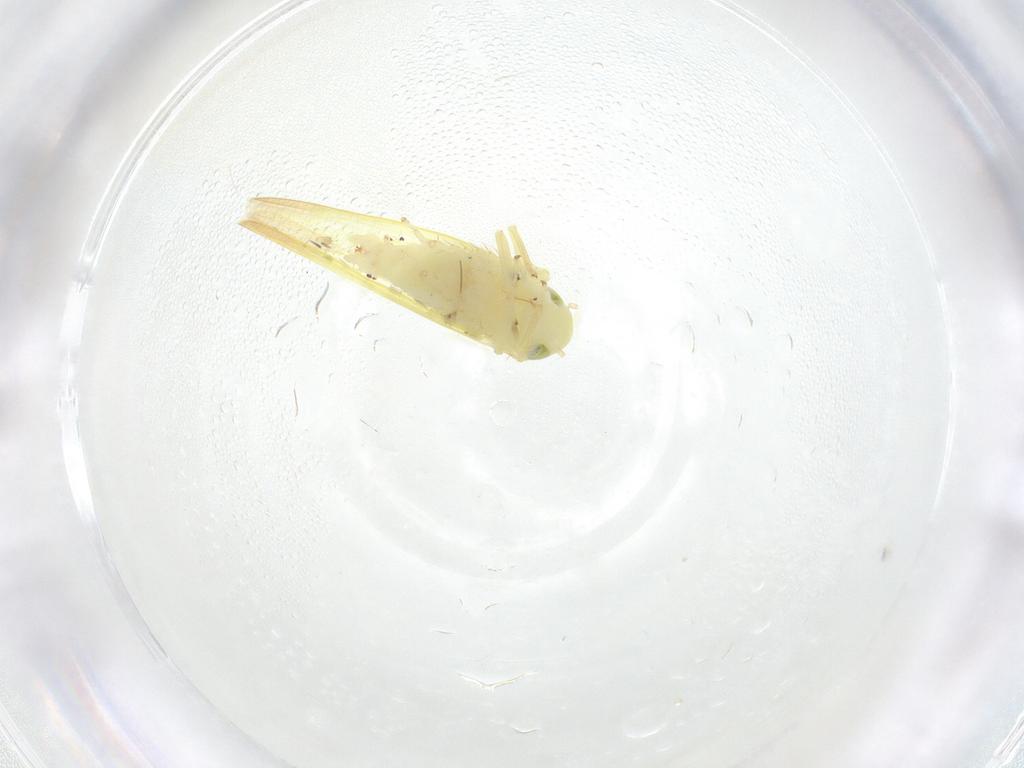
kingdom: Animalia
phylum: Arthropoda
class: Insecta
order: Hemiptera
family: Cicadellidae
